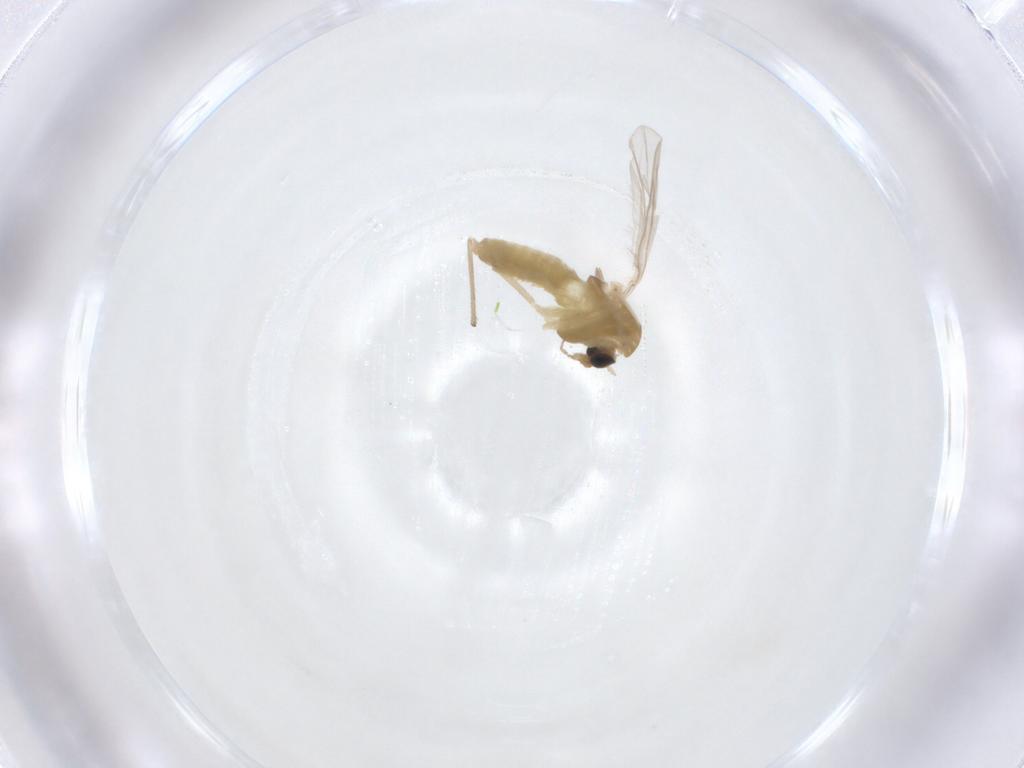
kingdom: Animalia
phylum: Arthropoda
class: Insecta
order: Diptera
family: Chironomidae
